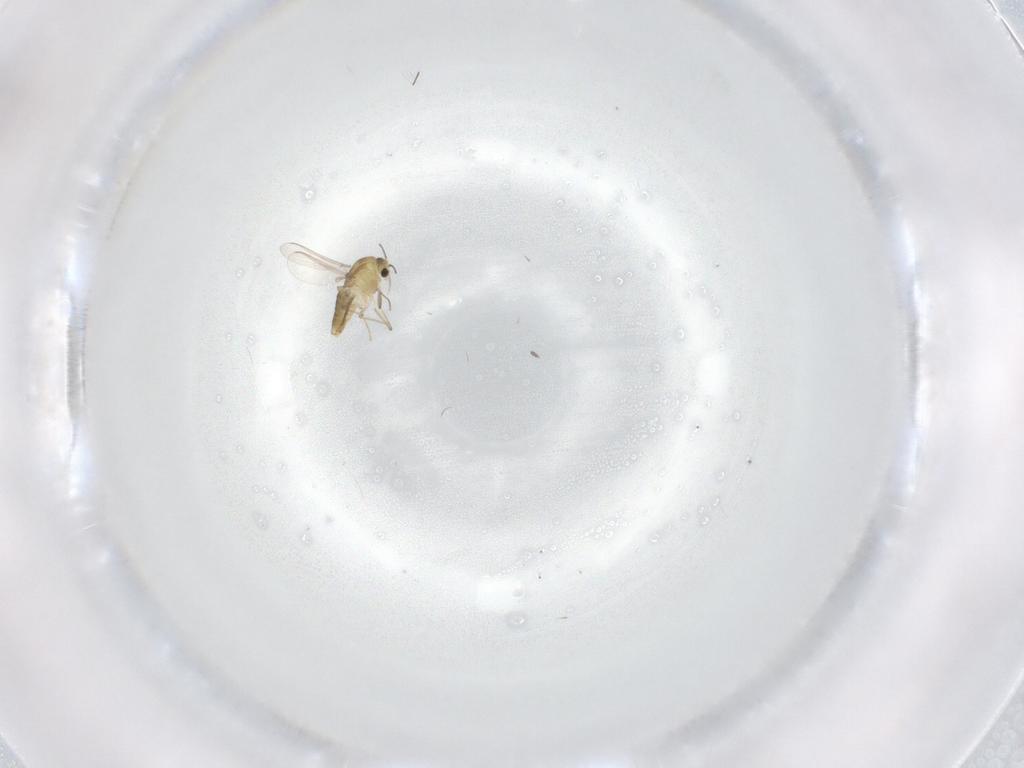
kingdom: Animalia
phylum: Arthropoda
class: Insecta
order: Diptera
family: Chironomidae
